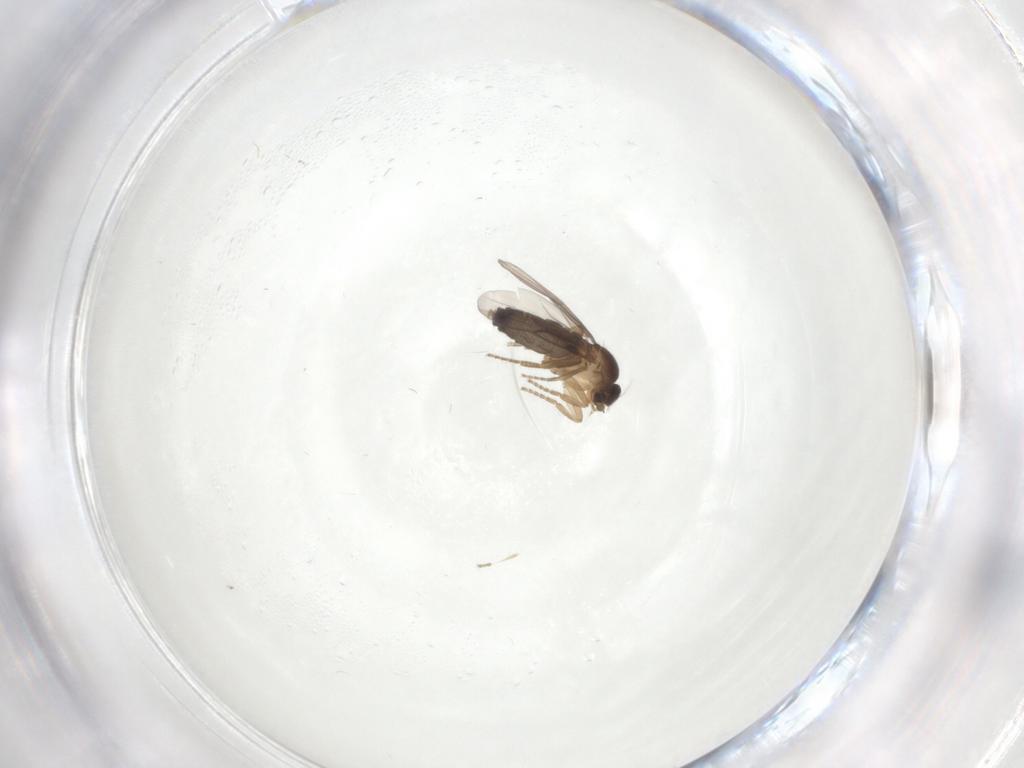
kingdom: Animalia
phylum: Arthropoda
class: Insecta
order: Diptera
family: Phoridae
